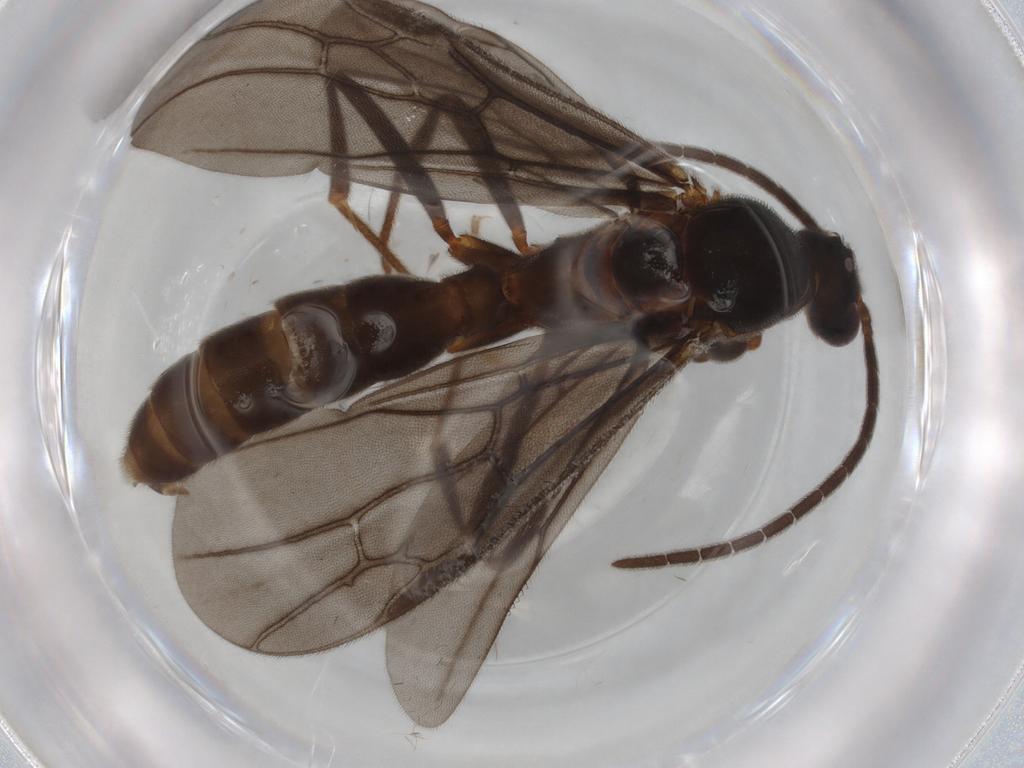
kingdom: Animalia
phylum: Arthropoda
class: Insecta
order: Hymenoptera
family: Formicidae
